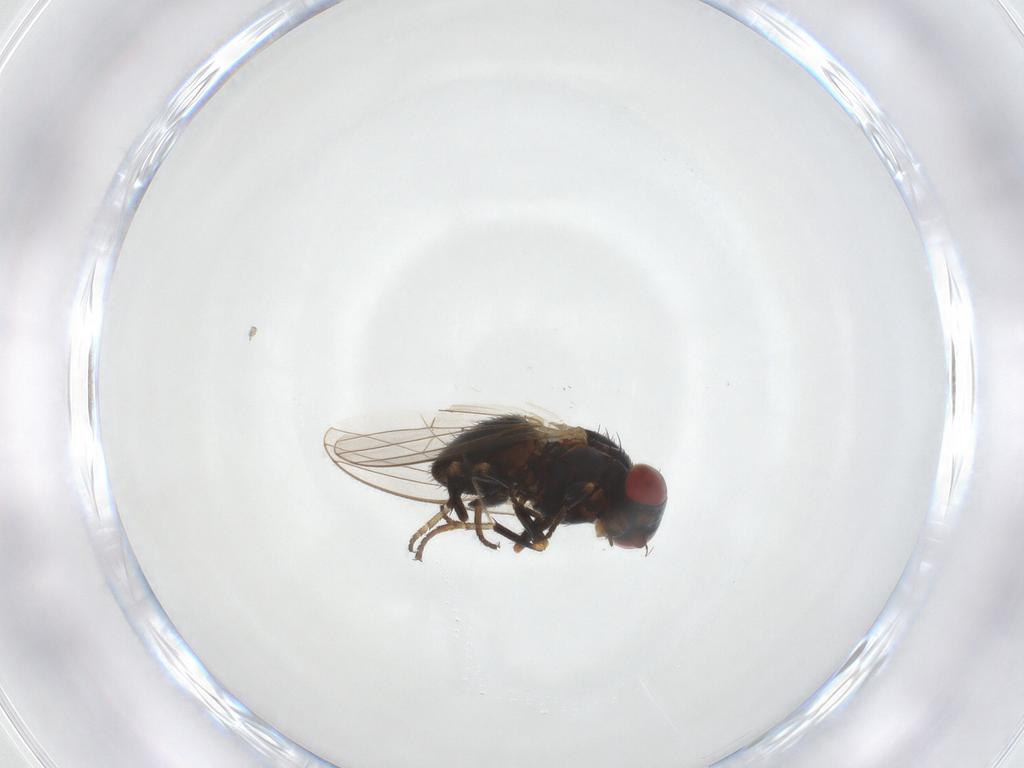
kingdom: Animalia
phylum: Arthropoda
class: Insecta
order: Diptera
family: Chamaemyiidae
